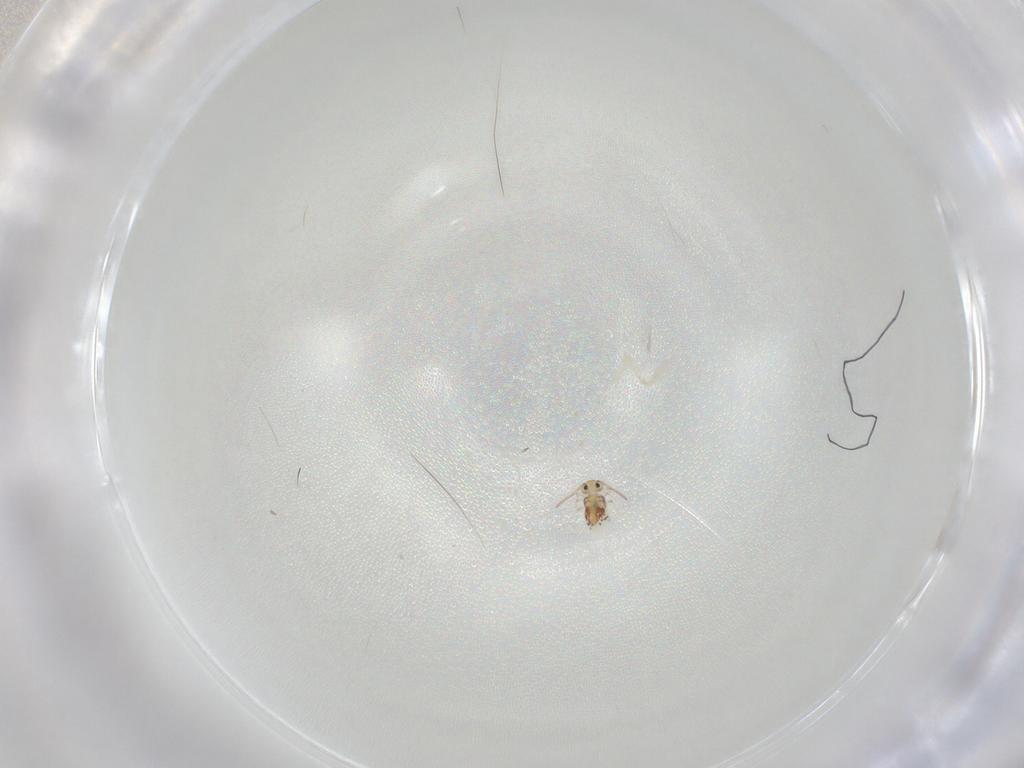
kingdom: Animalia
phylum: Arthropoda
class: Collembola
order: Symphypleona
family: Bourletiellidae
